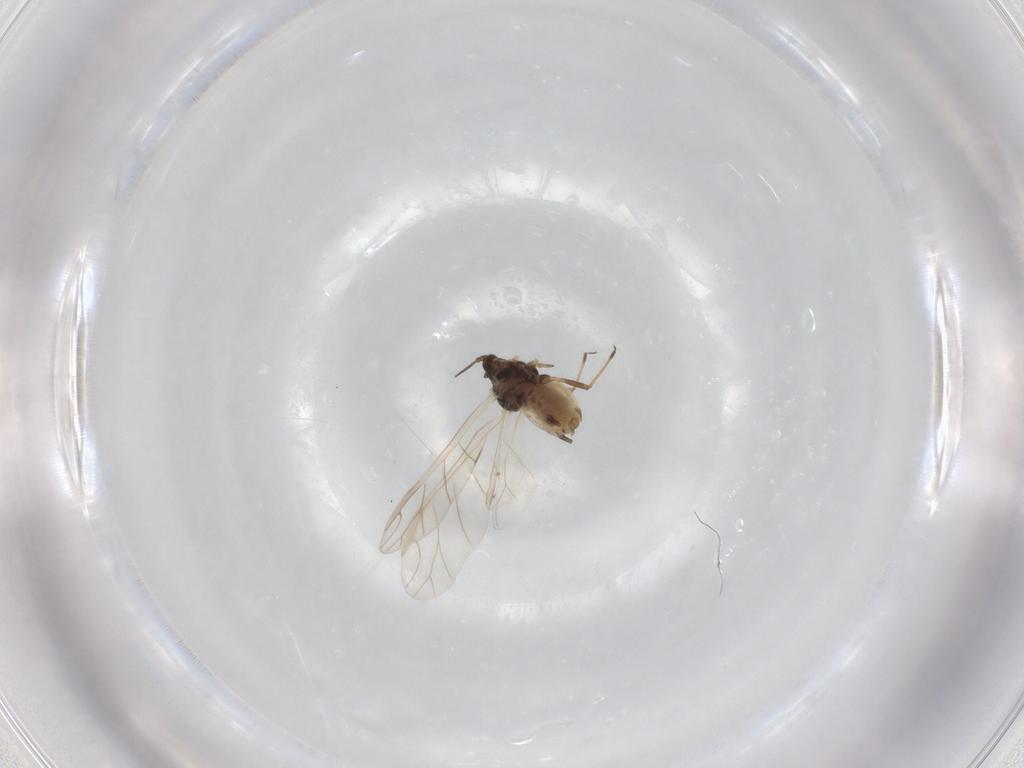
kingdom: Animalia
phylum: Arthropoda
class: Insecta
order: Hemiptera
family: Aphididae
